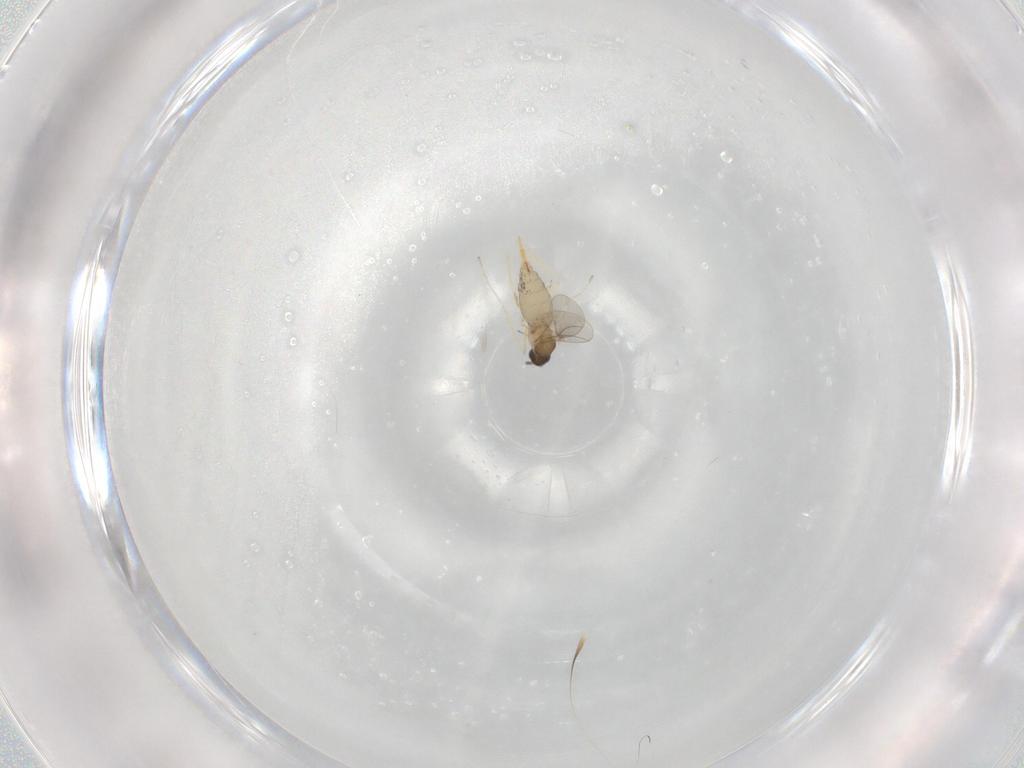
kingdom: Animalia
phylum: Arthropoda
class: Insecta
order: Diptera
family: Cecidomyiidae
